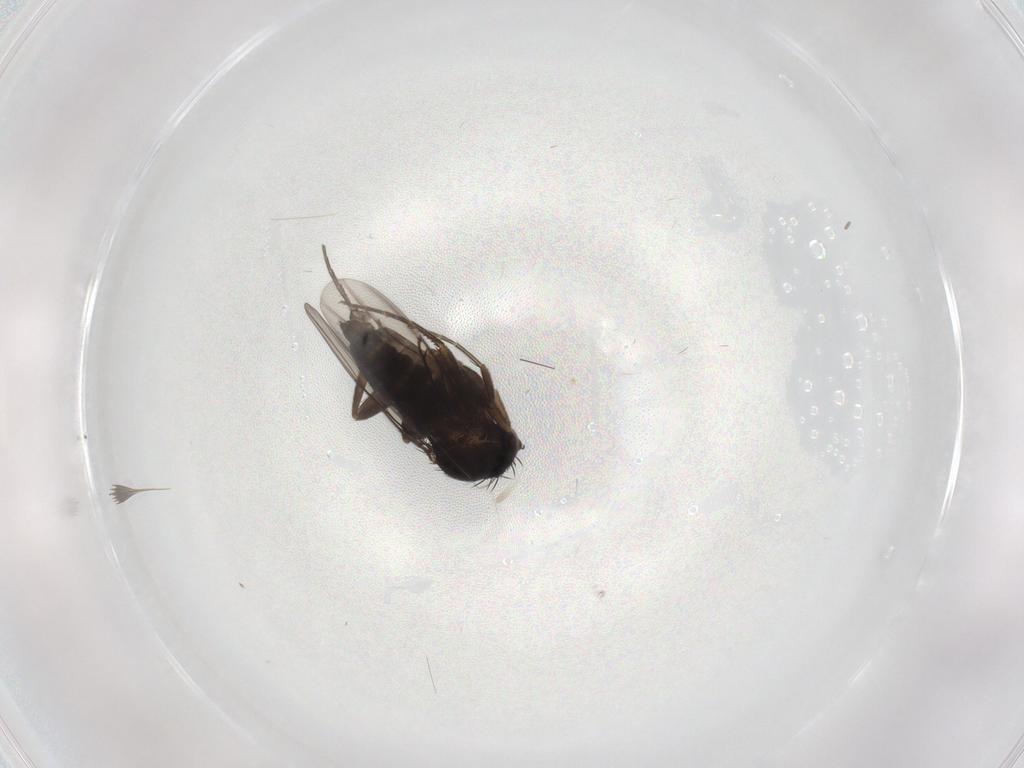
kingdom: Animalia
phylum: Arthropoda
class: Insecta
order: Diptera
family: Phoridae
